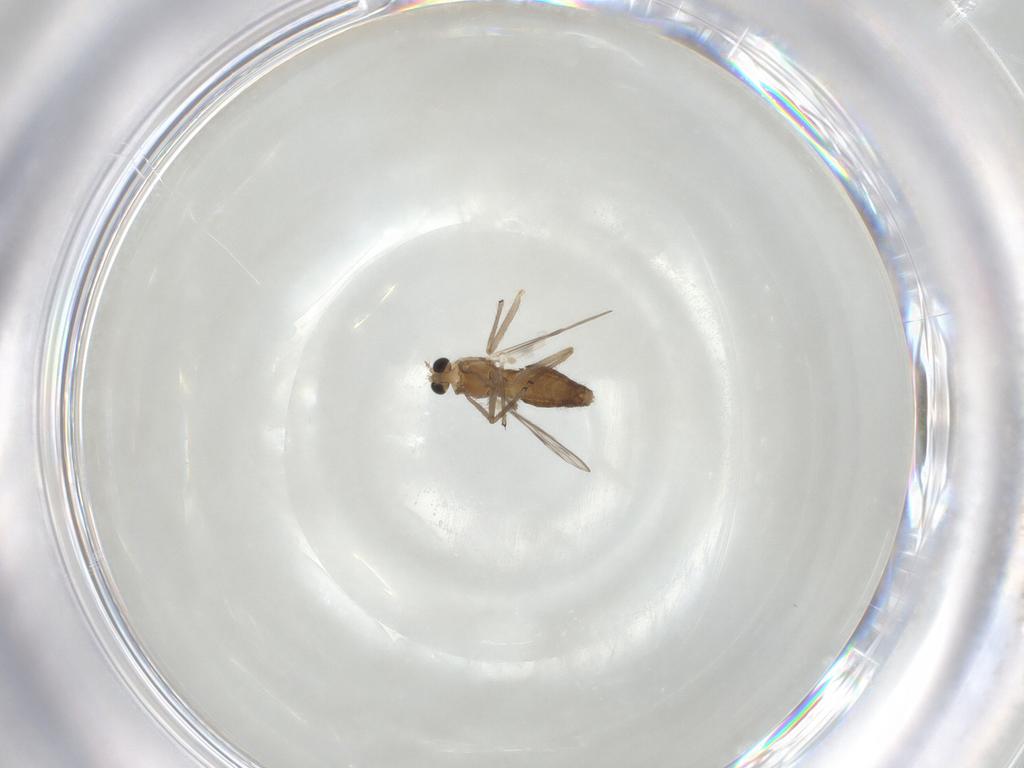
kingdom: Animalia
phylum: Arthropoda
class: Insecta
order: Diptera
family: Chironomidae
